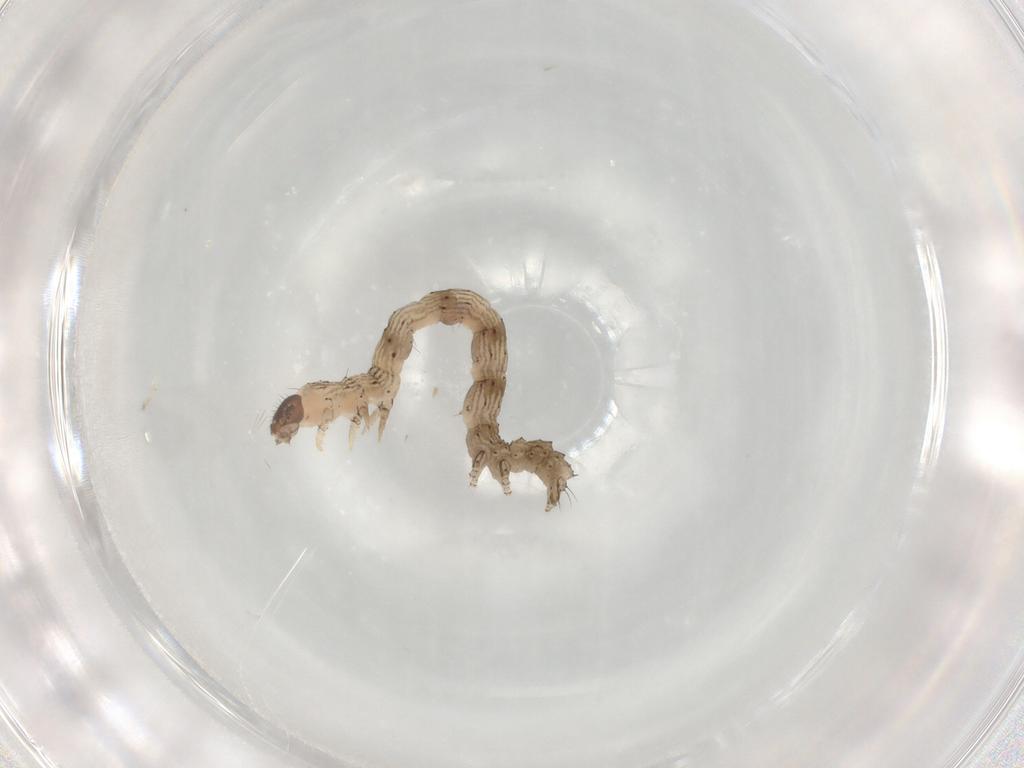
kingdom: Animalia
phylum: Arthropoda
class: Insecta
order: Lepidoptera
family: Erebidae
